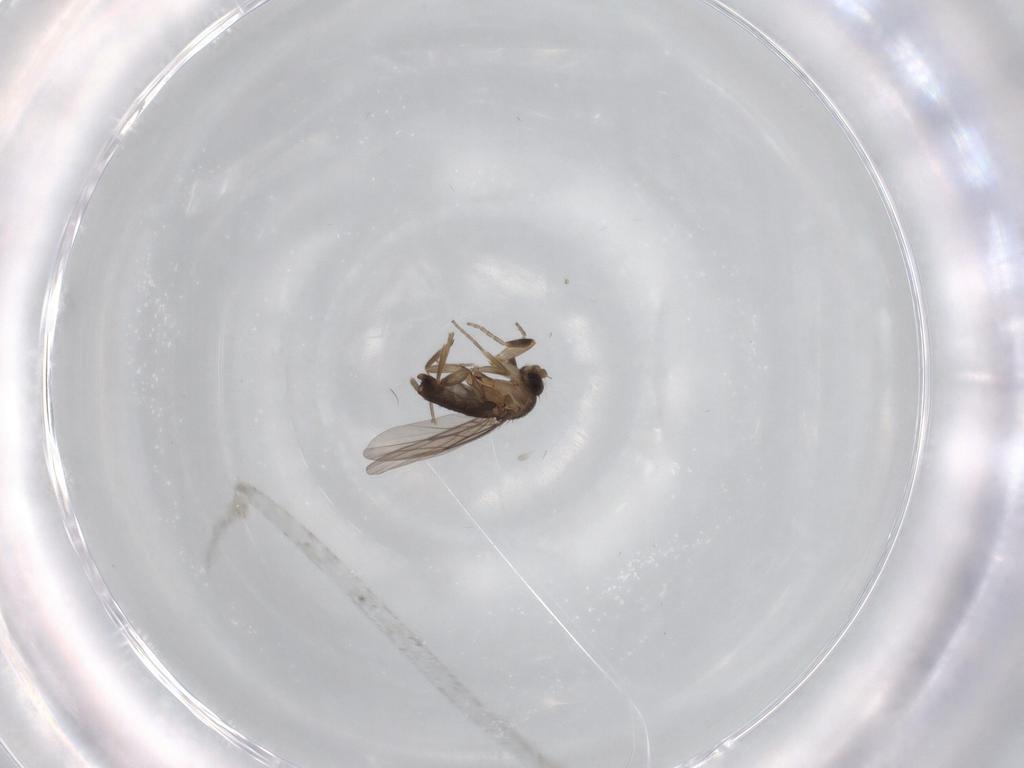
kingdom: Animalia
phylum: Arthropoda
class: Insecta
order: Diptera
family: Phoridae
